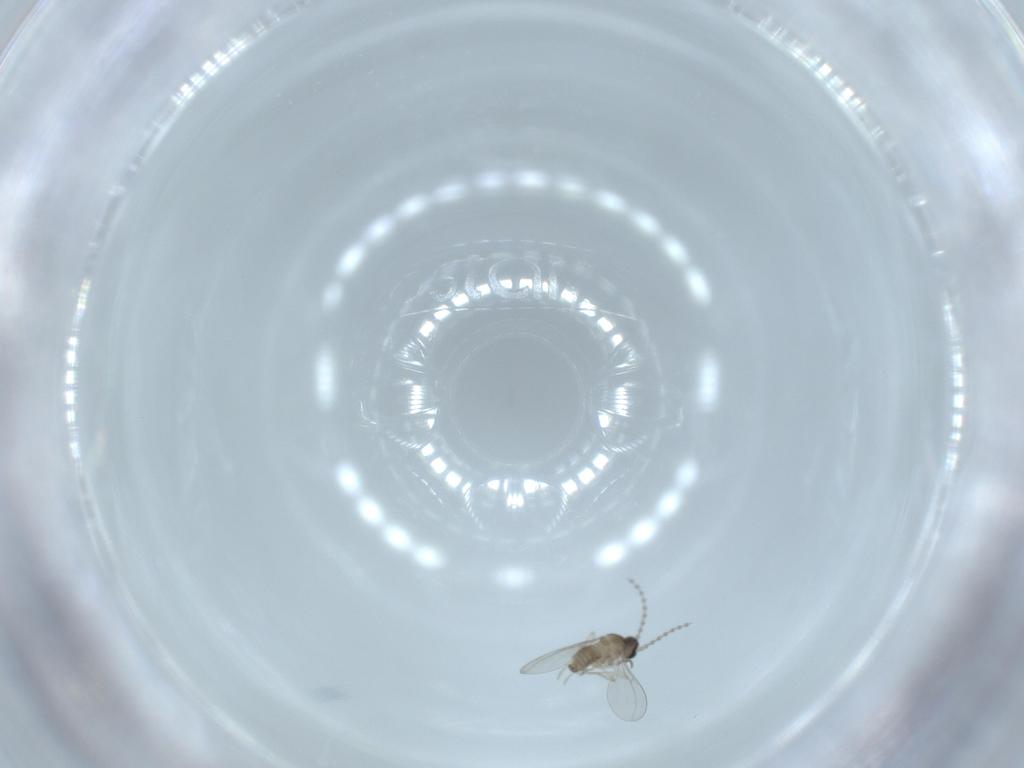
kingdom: Animalia
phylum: Arthropoda
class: Insecta
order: Diptera
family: Cecidomyiidae
